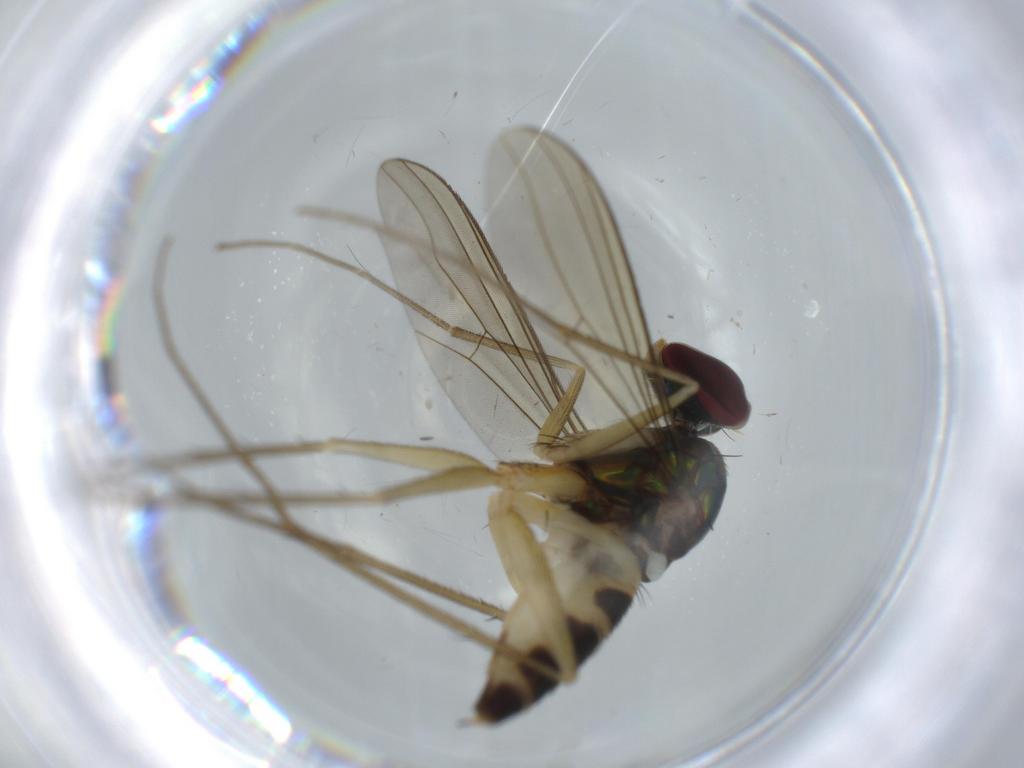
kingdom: Animalia
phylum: Arthropoda
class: Insecta
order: Diptera
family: Dolichopodidae
